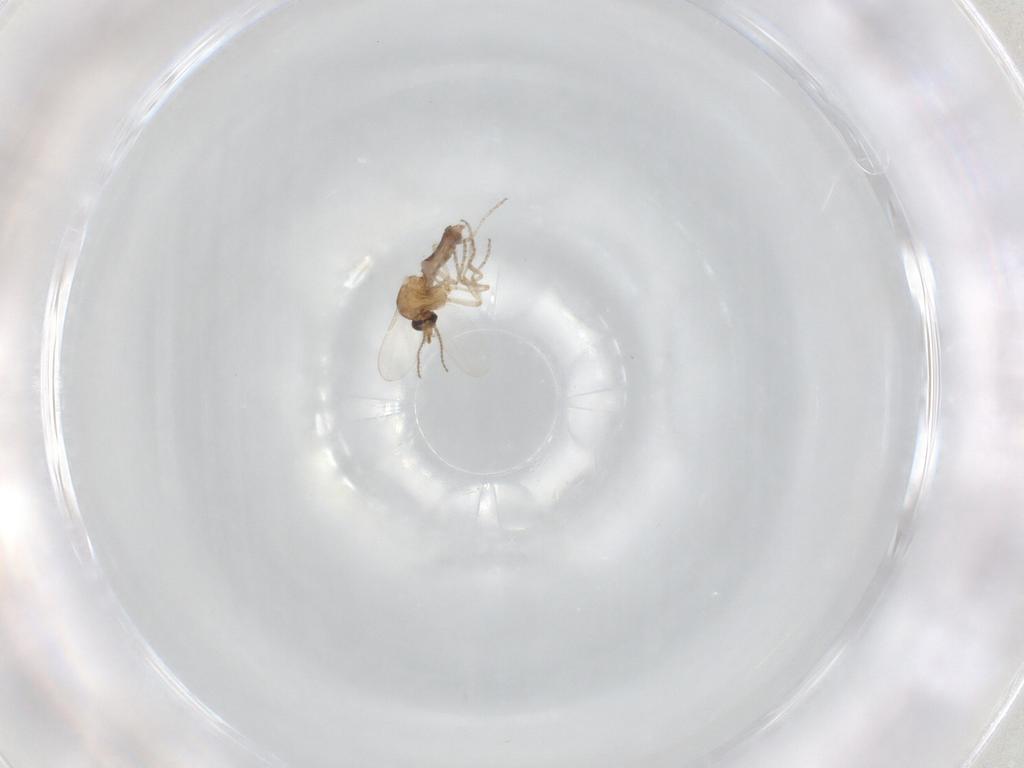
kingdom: Animalia
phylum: Arthropoda
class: Insecta
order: Diptera
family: Ceratopogonidae
